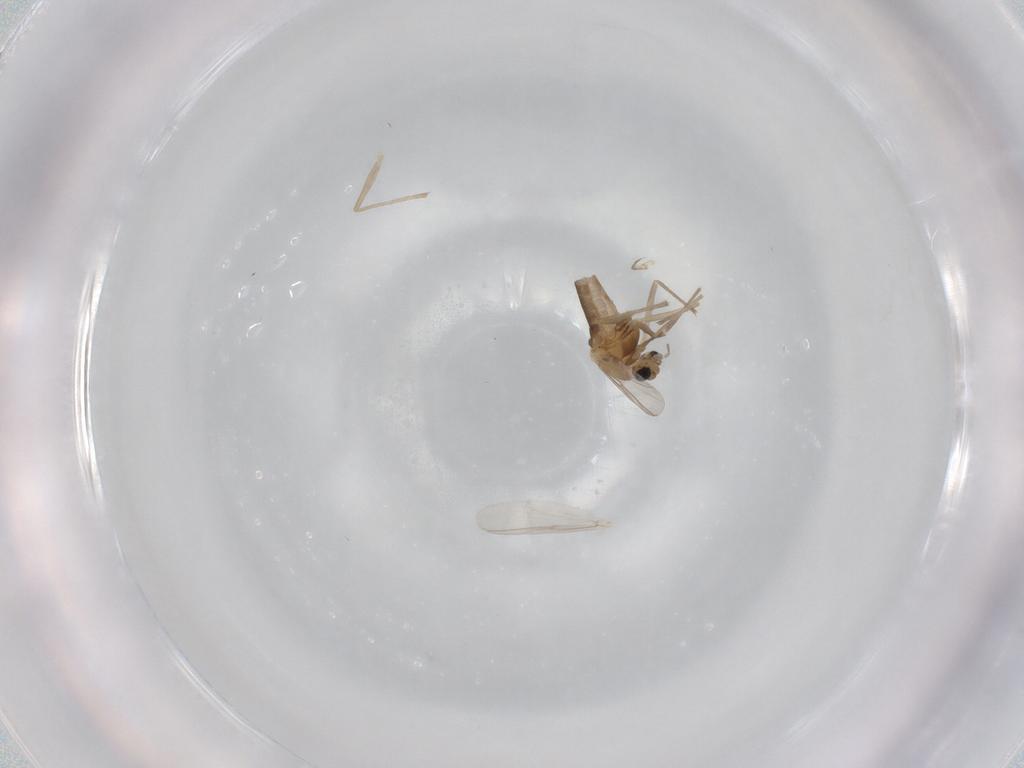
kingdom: Animalia
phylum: Arthropoda
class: Insecta
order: Diptera
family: Chironomidae
